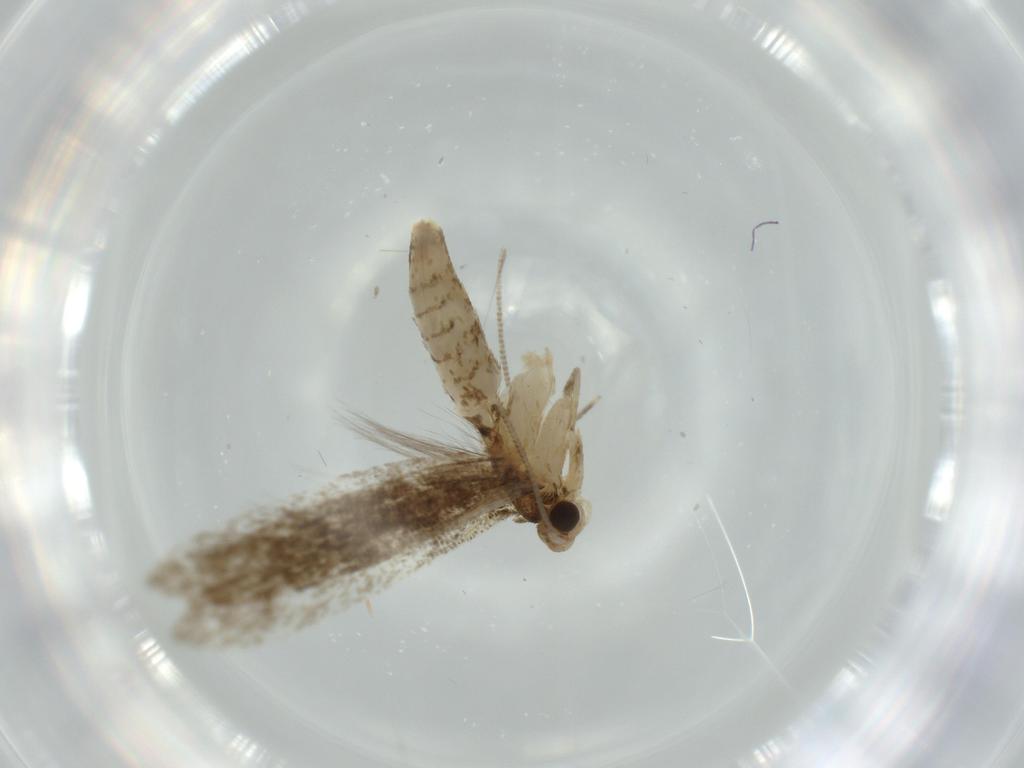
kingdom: Animalia
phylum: Arthropoda
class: Insecta
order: Lepidoptera
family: Meessiidae
